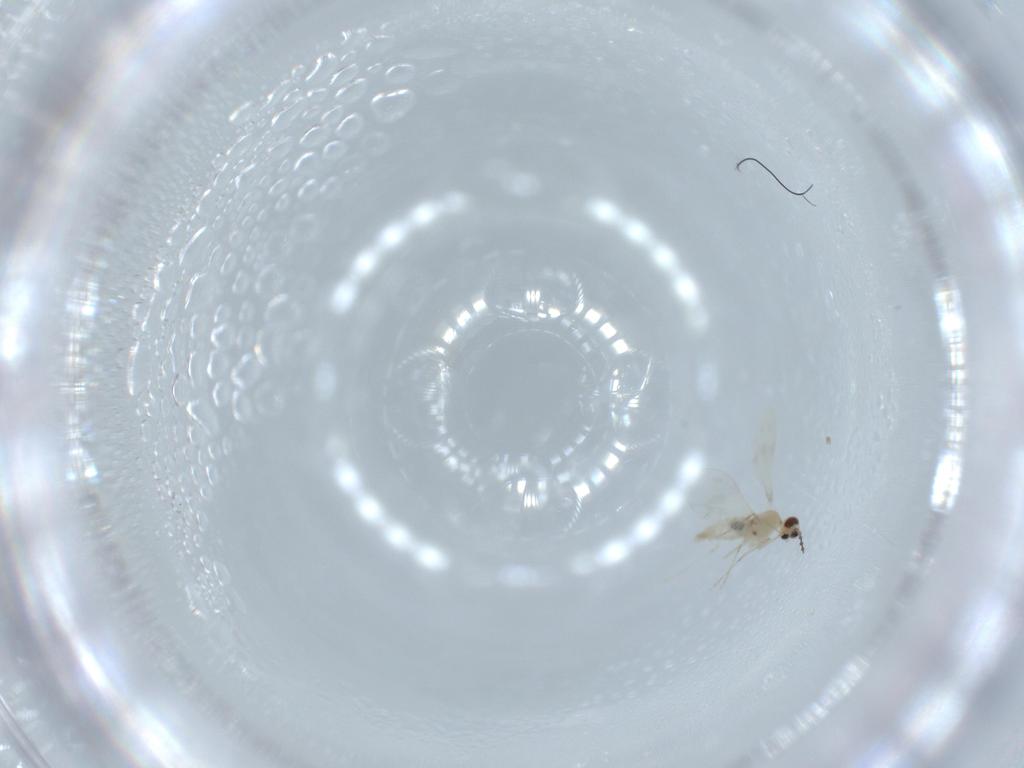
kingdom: Animalia
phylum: Arthropoda
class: Insecta
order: Diptera
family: Cecidomyiidae
